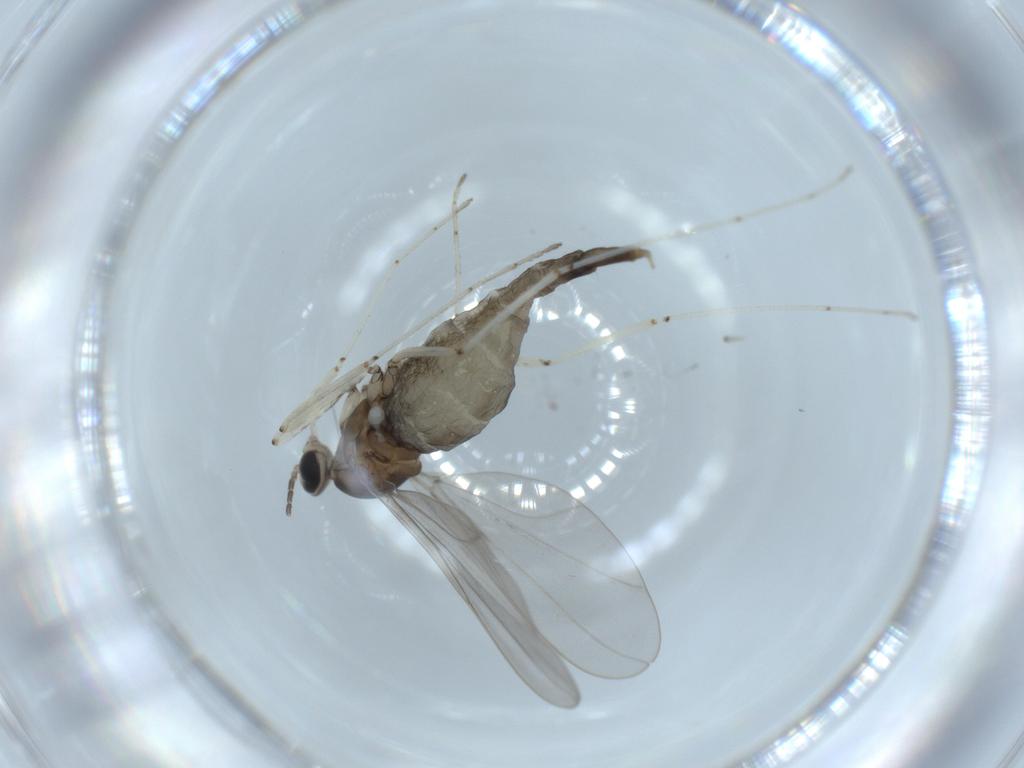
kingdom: Animalia
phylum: Arthropoda
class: Insecta
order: Diptera
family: Cecidomyiidae
